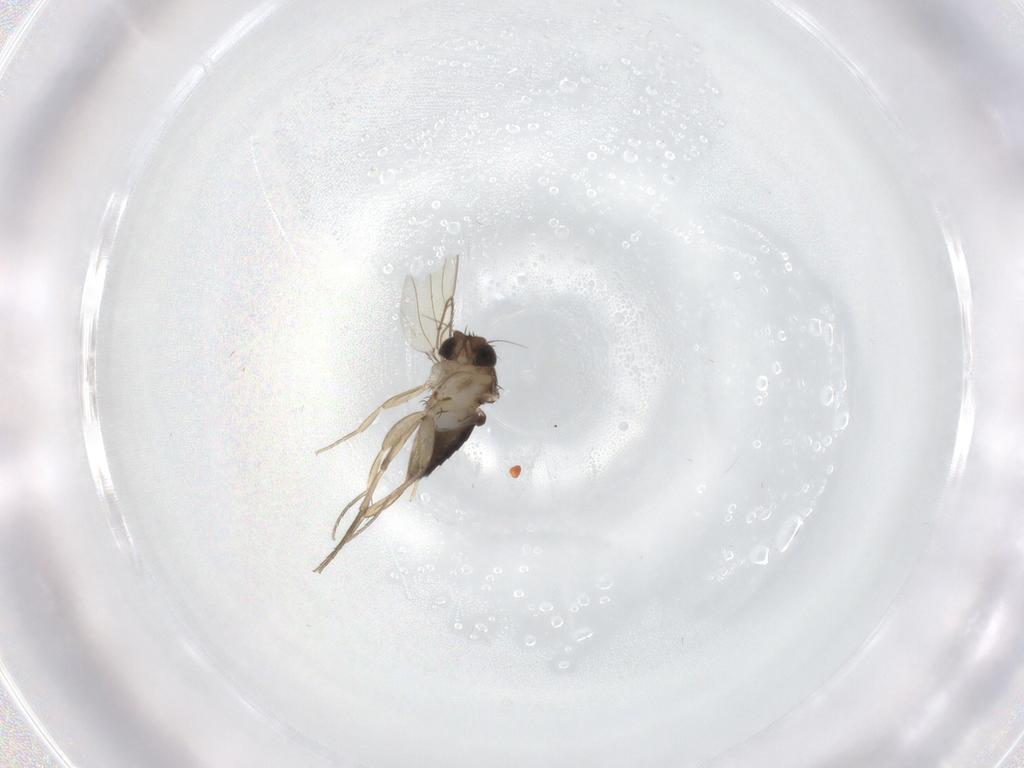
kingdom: Animalia
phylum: Arthropoda
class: Insecta
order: Diptera
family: Phoridae
